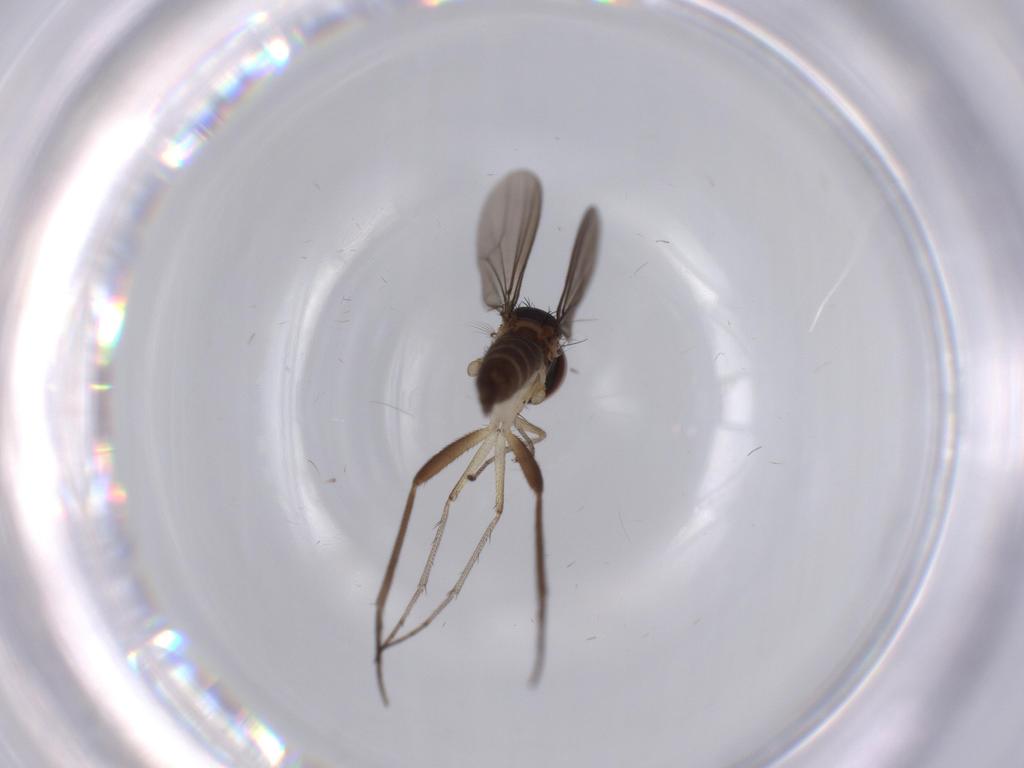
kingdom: Animalia
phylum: Arthropoda
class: Insecta
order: Diptera
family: Dolichopodidae
